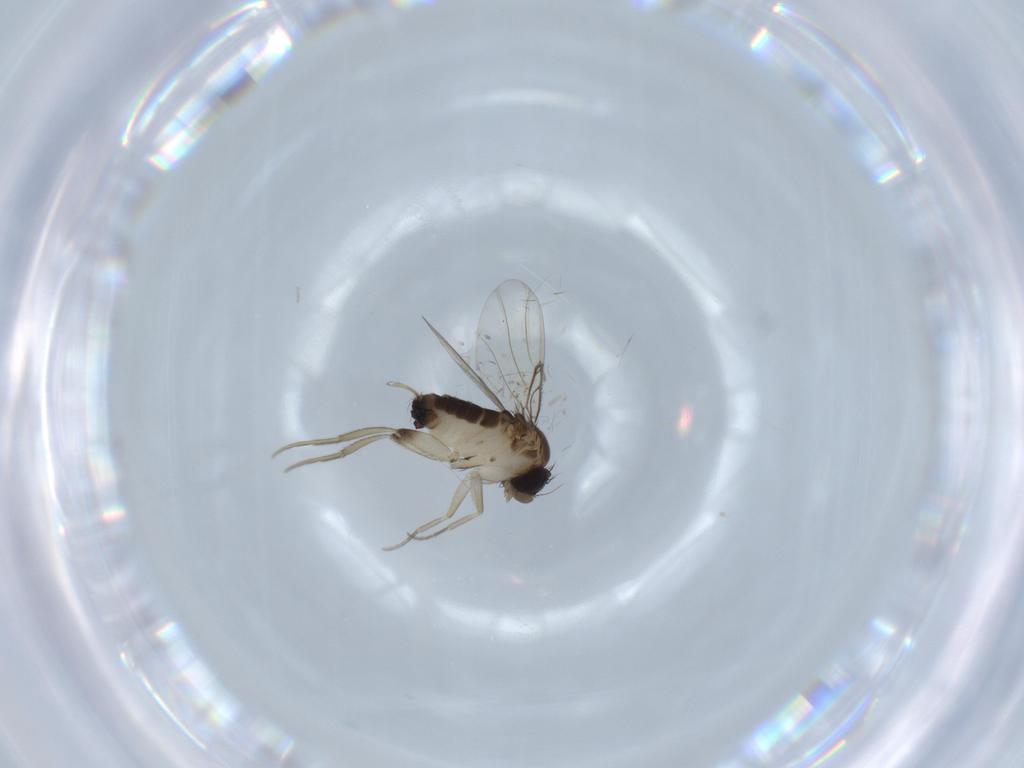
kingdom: Animalia
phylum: Arthropoda
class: Insecta
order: Diptera
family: Phoridae
